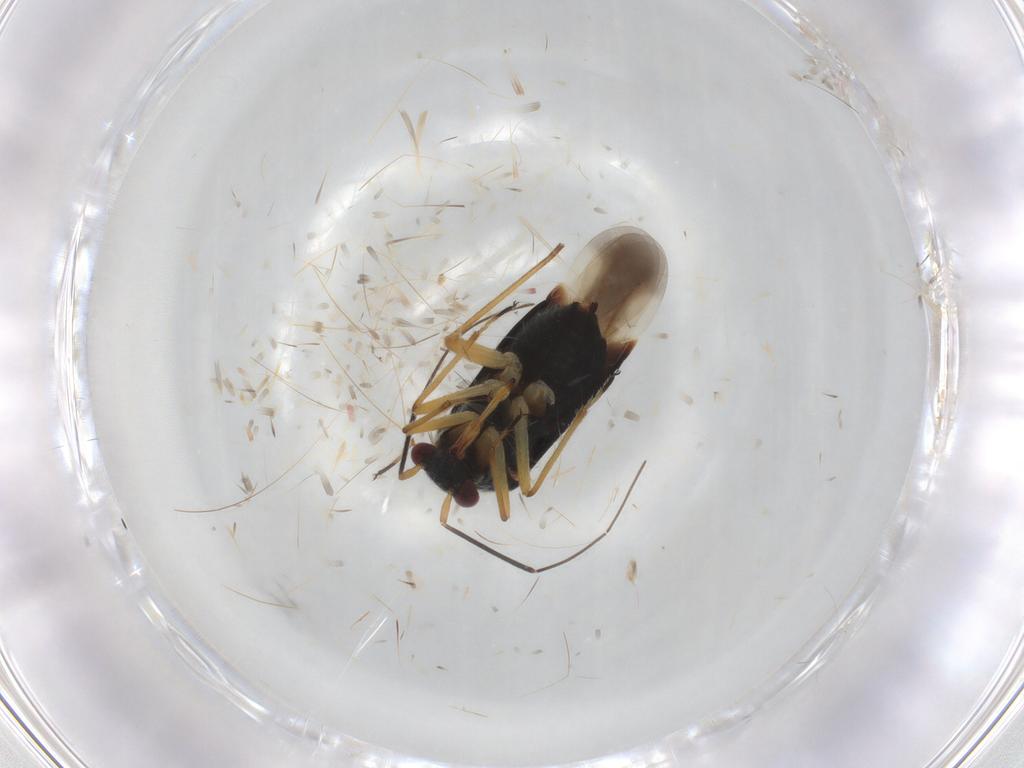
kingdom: Animalia
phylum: Arthropoda
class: Insecta
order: Hemiptera
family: Miridae
